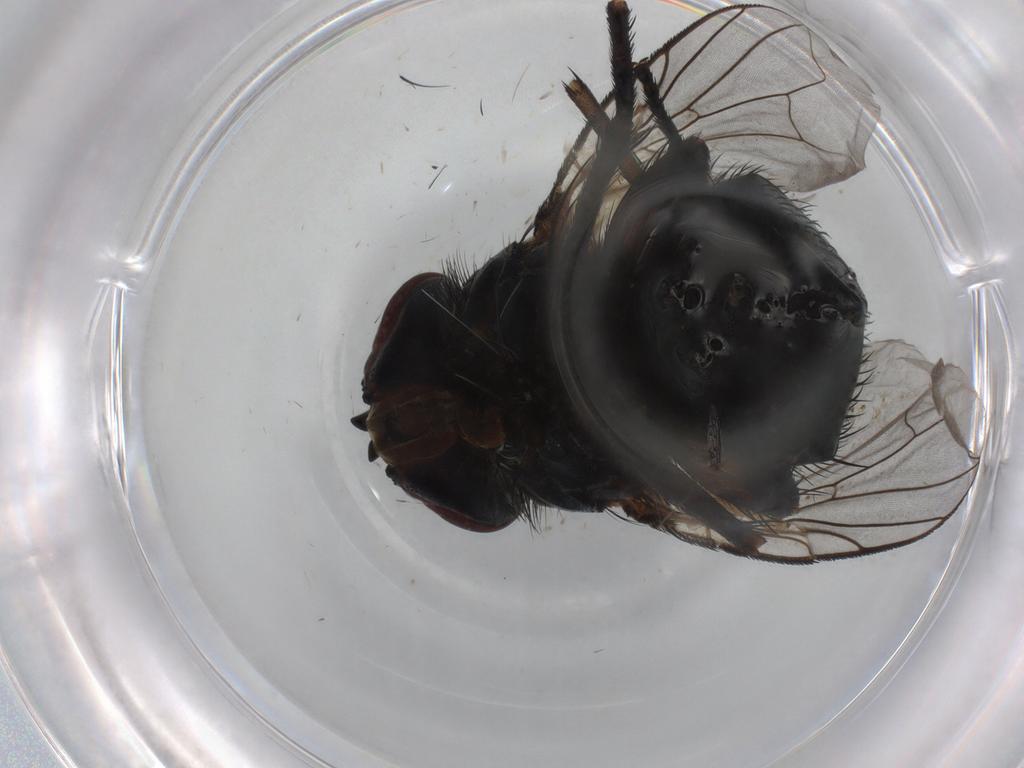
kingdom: Animalia
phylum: Arthropoda
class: Insecta
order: Diptera
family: Tachinidae
